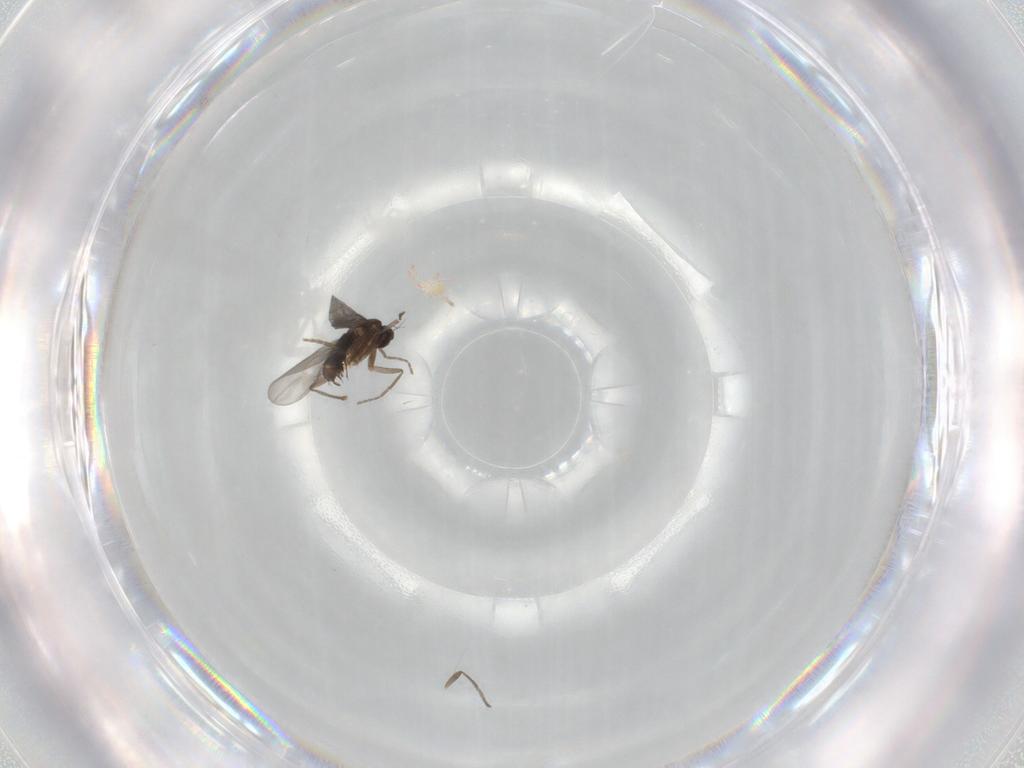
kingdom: Animalia
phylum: Arthropoda
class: Insecta
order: Diptera
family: Phoridae
